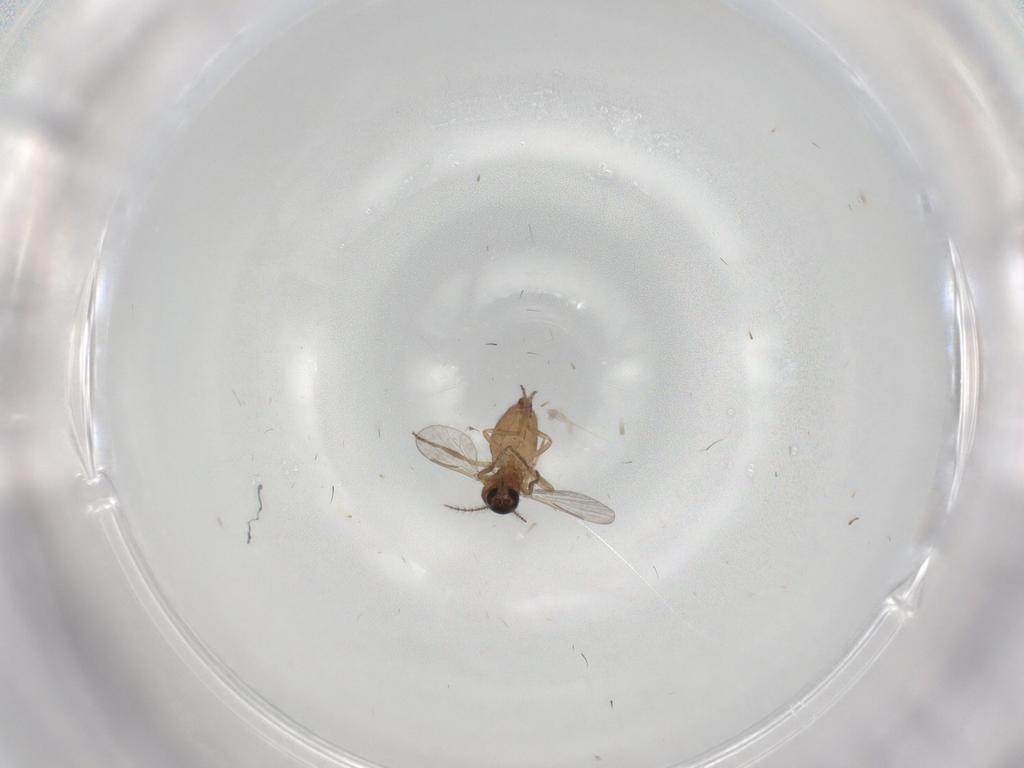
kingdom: Animalia
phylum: Arthropoda
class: Insecta
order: Diptera
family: Chironomidae
